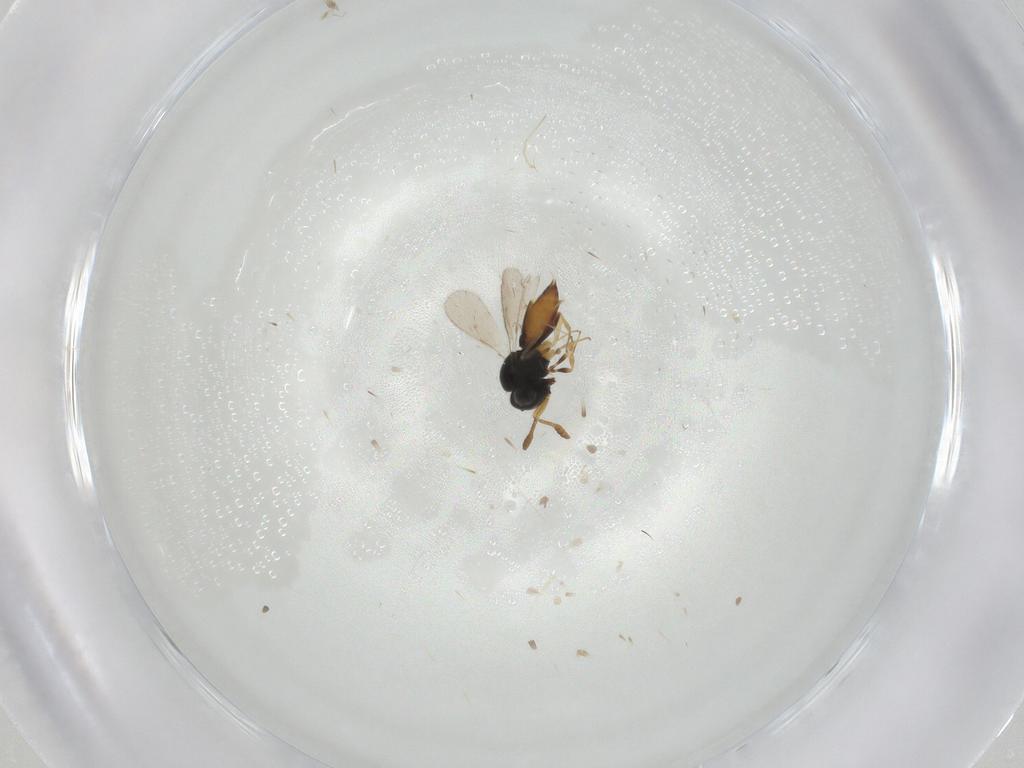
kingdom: Animalia
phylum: Arthropoda
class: Insecta
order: Hymenoptera
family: Eulophidae
